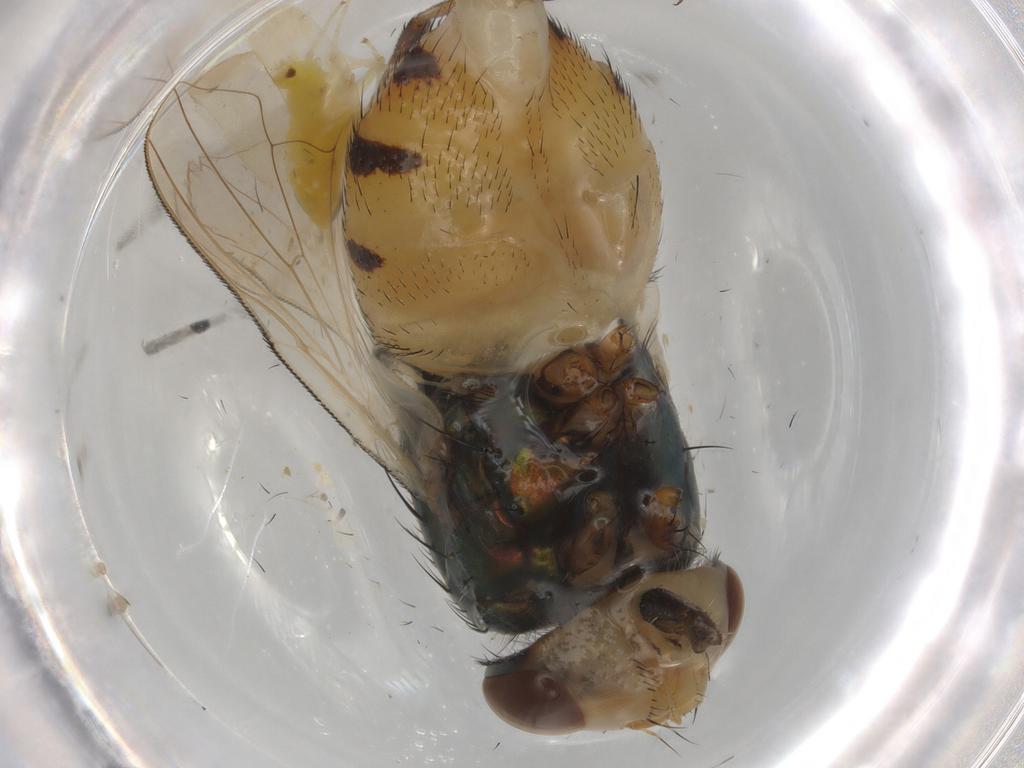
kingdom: Animalia
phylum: Arthropoda
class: Insecta
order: Diptera
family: Calliphoridae
